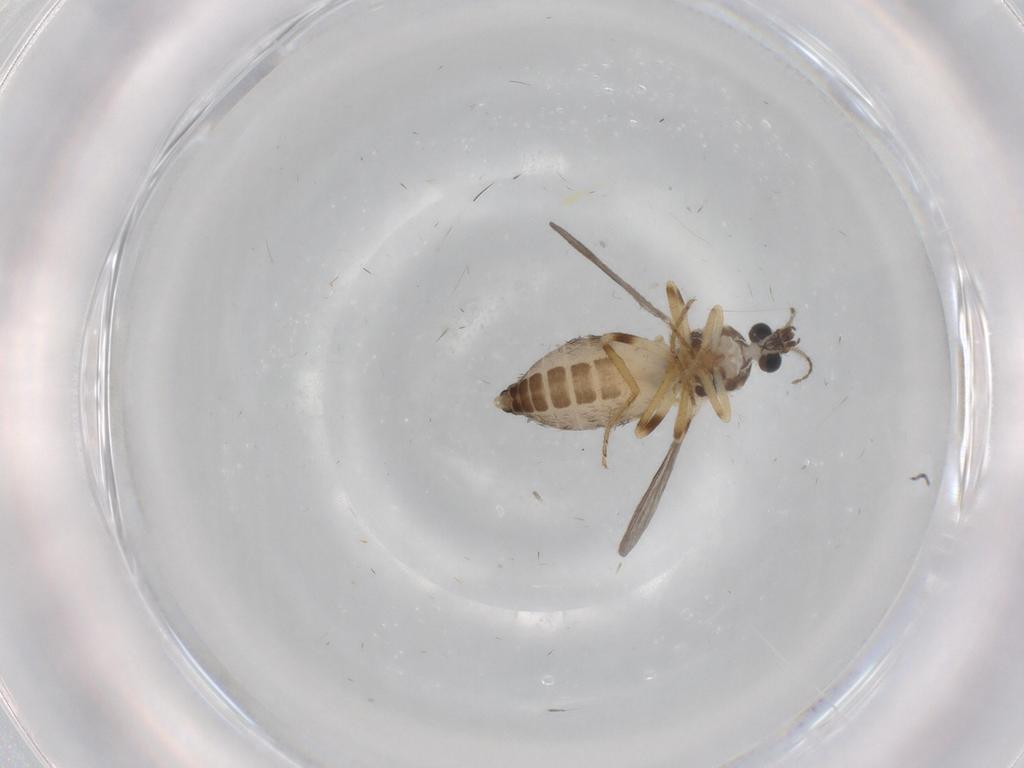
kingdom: Animalia
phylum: Arthropoda
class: Insecta
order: Diptera
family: Ceratopogonidae
